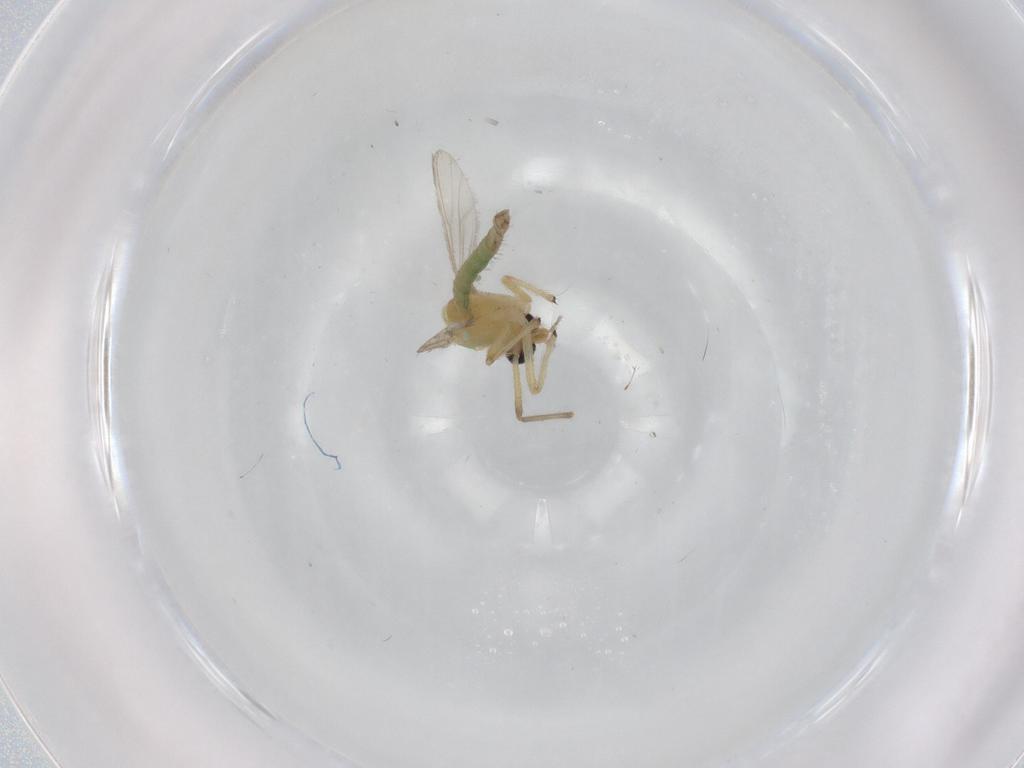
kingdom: Animalia
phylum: Arthropoda
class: Insecta
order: Diptera
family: Chironomidae
